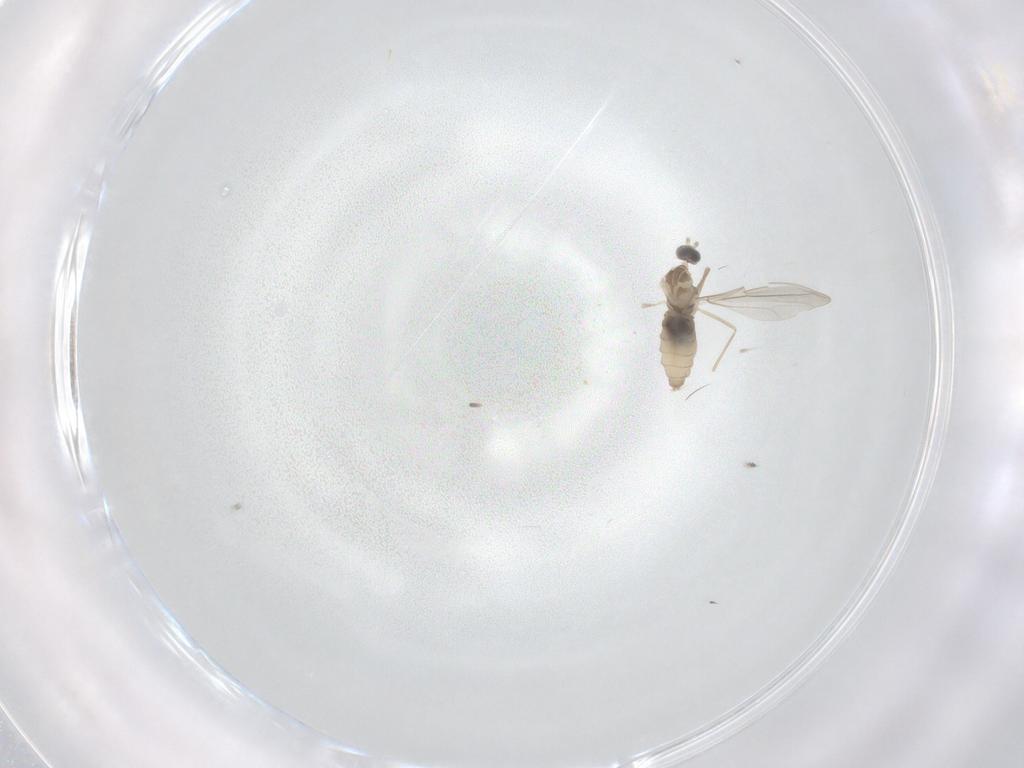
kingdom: Animalia
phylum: Arthropoda
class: Insecta
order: Diptera
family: Cecidomyiidae
